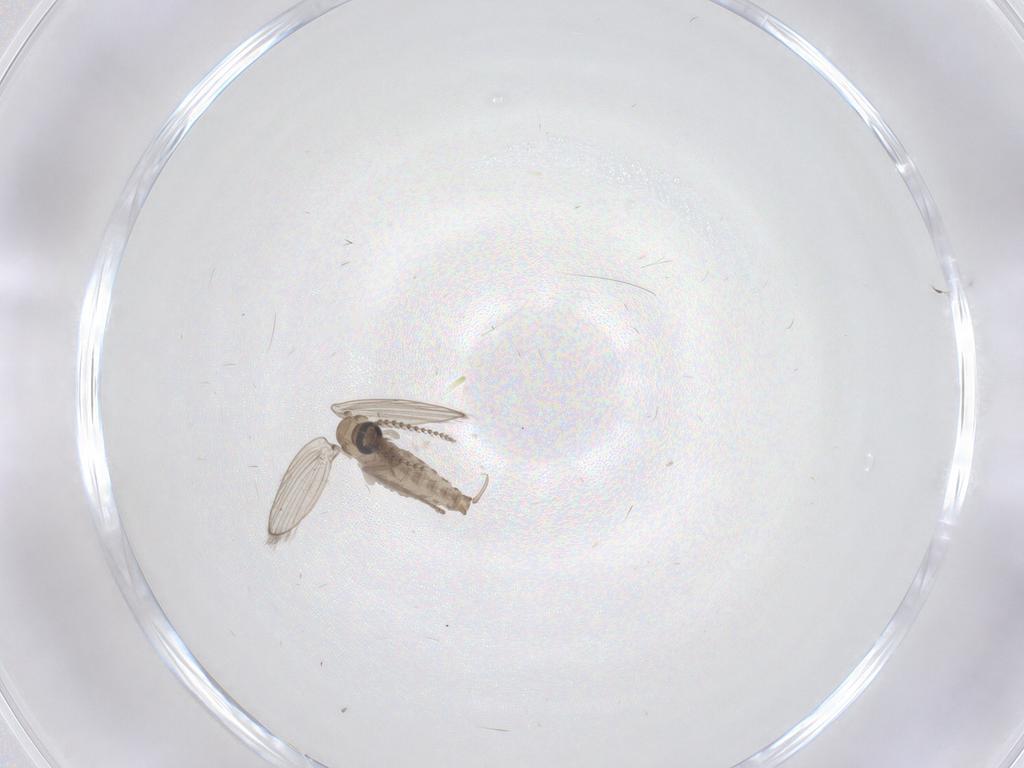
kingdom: Animalia
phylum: Arthropoda
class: Insecta
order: Diptera
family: Psychodidae
